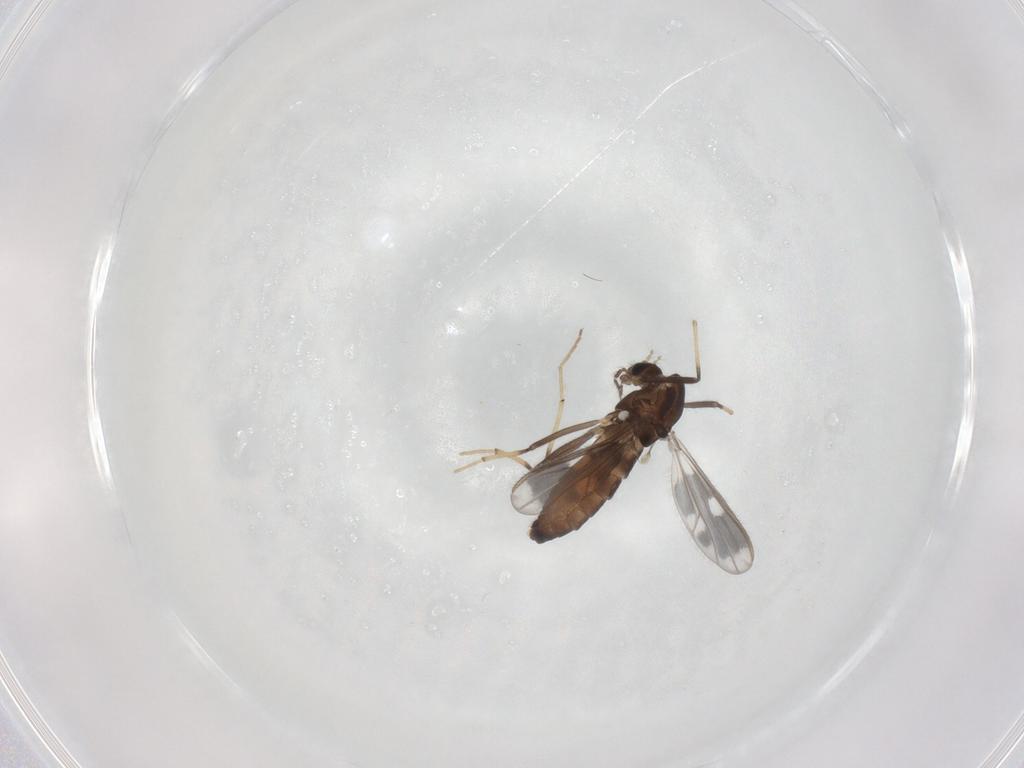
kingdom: Animalia
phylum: Arthropoda
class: Insecta
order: Diptera
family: Chironomidae
